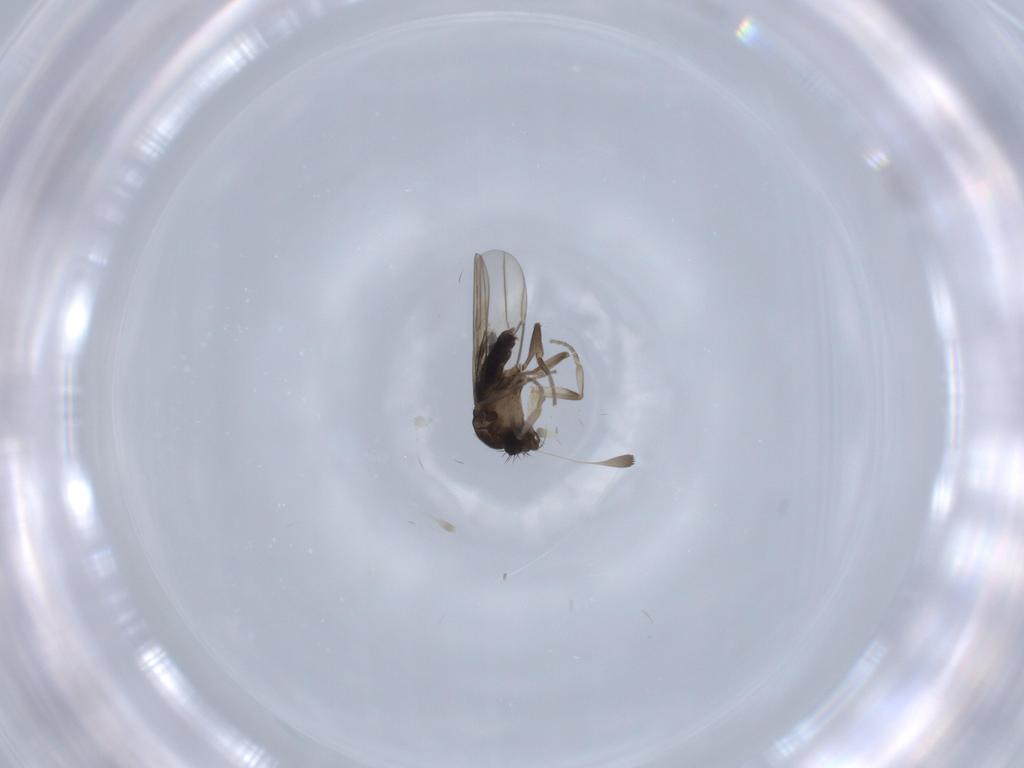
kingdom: Animalia
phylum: Arthropoda
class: Insecta
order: Diptera
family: Phoridae
